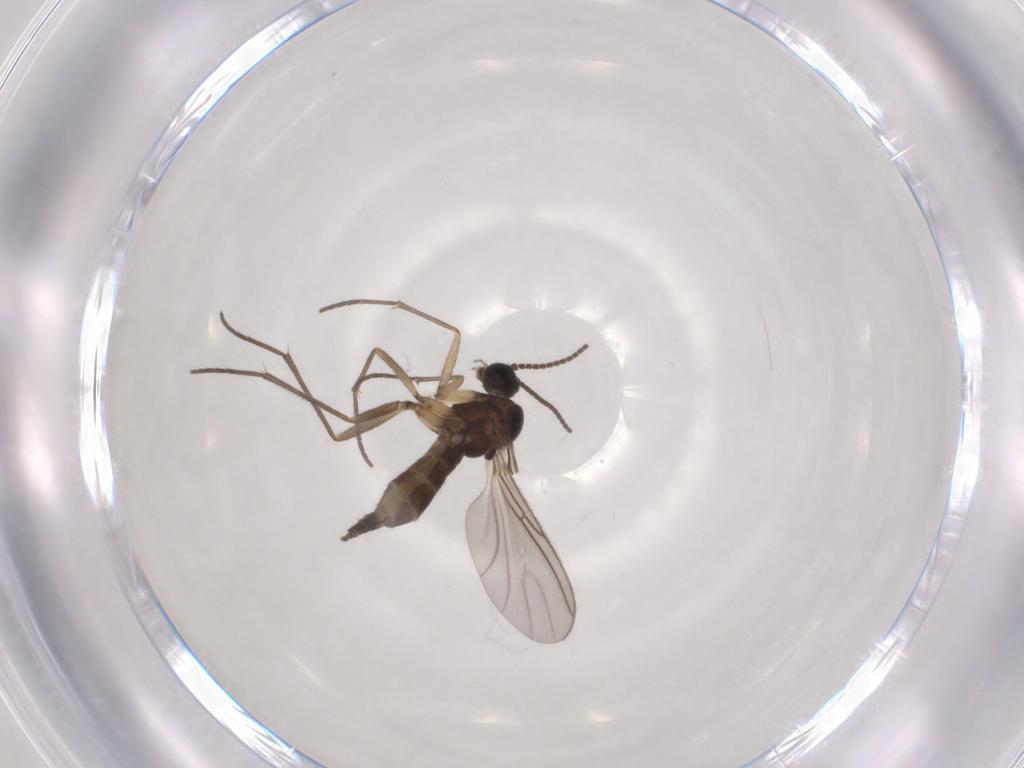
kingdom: Animalia
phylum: Arthropoda
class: Insecta
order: Diptera
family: Sciaridae
